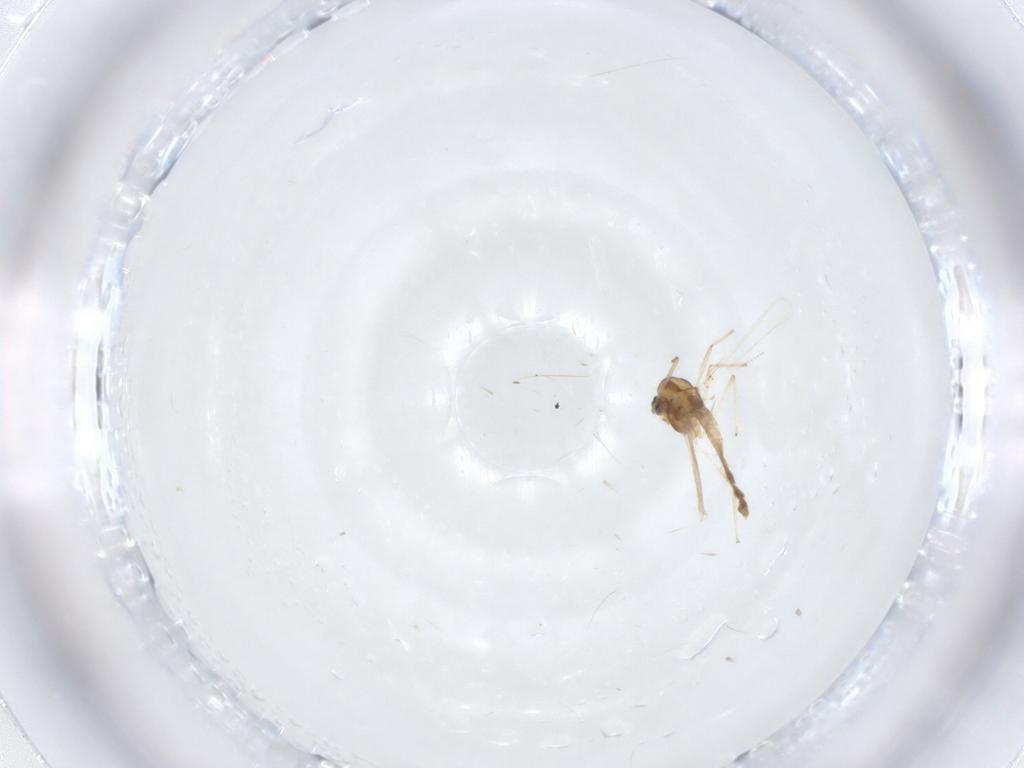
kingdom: Animalia
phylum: Arthropoda
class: Insecta
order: Diptera
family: Chironomidae
